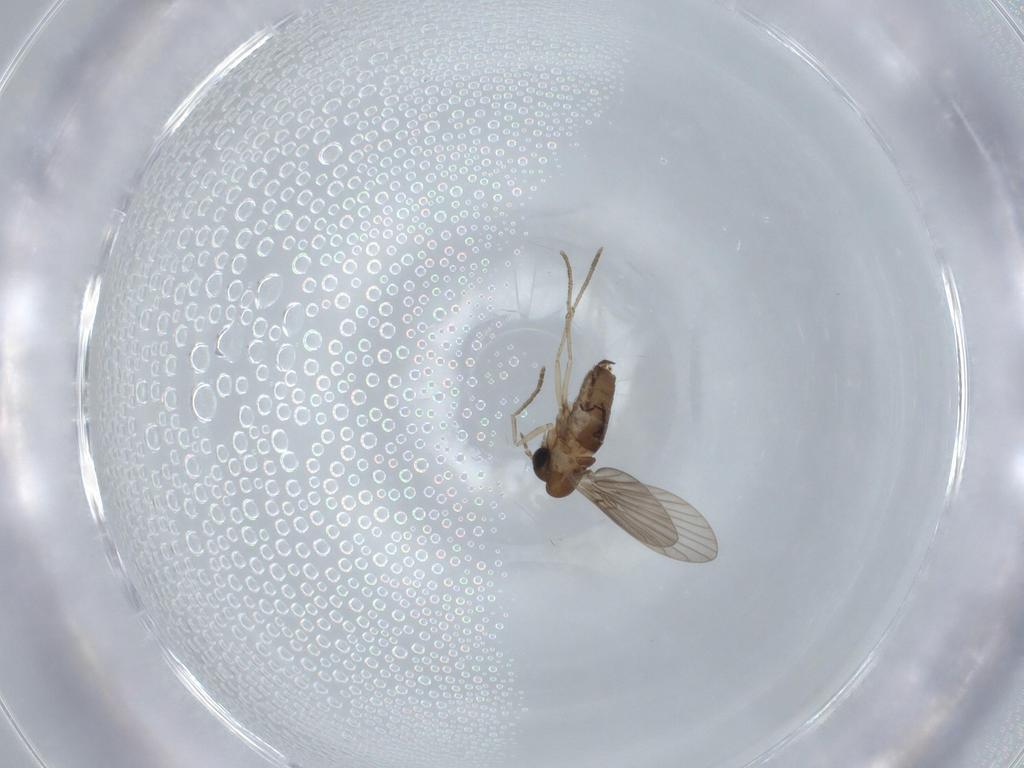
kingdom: Animalia
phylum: Arthropoda
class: Insecta
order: Diptera
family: Psychodidae
